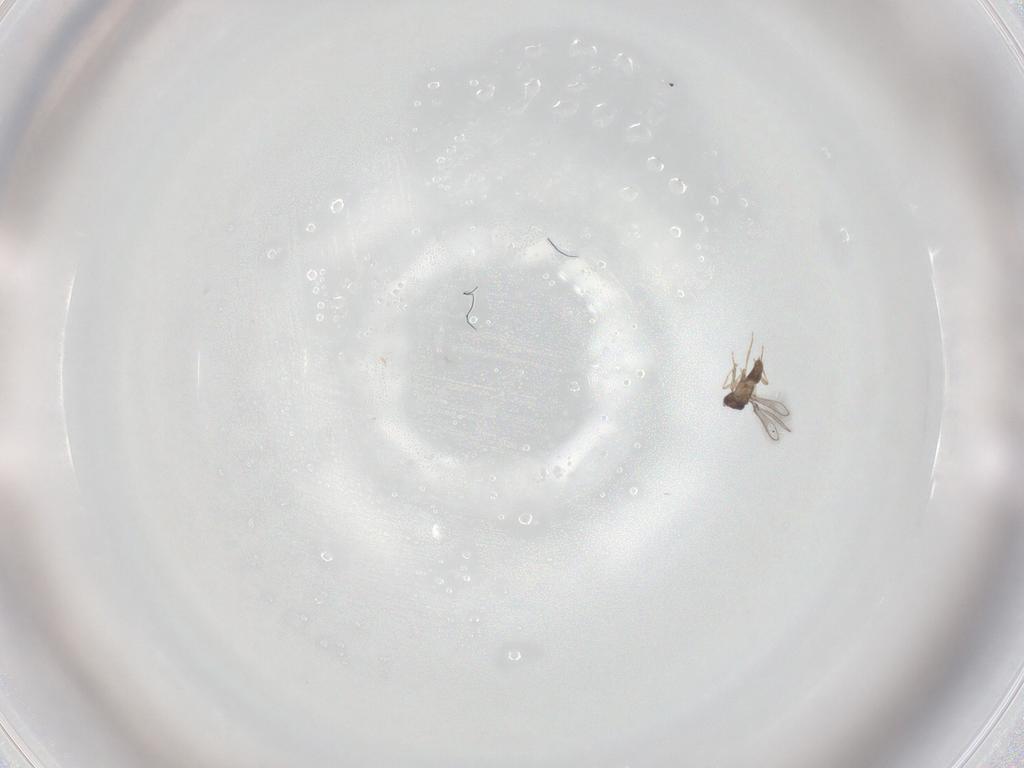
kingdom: Animalia
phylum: Arthropoda
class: Insecta
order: Hymenoptera
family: Mymaridae
